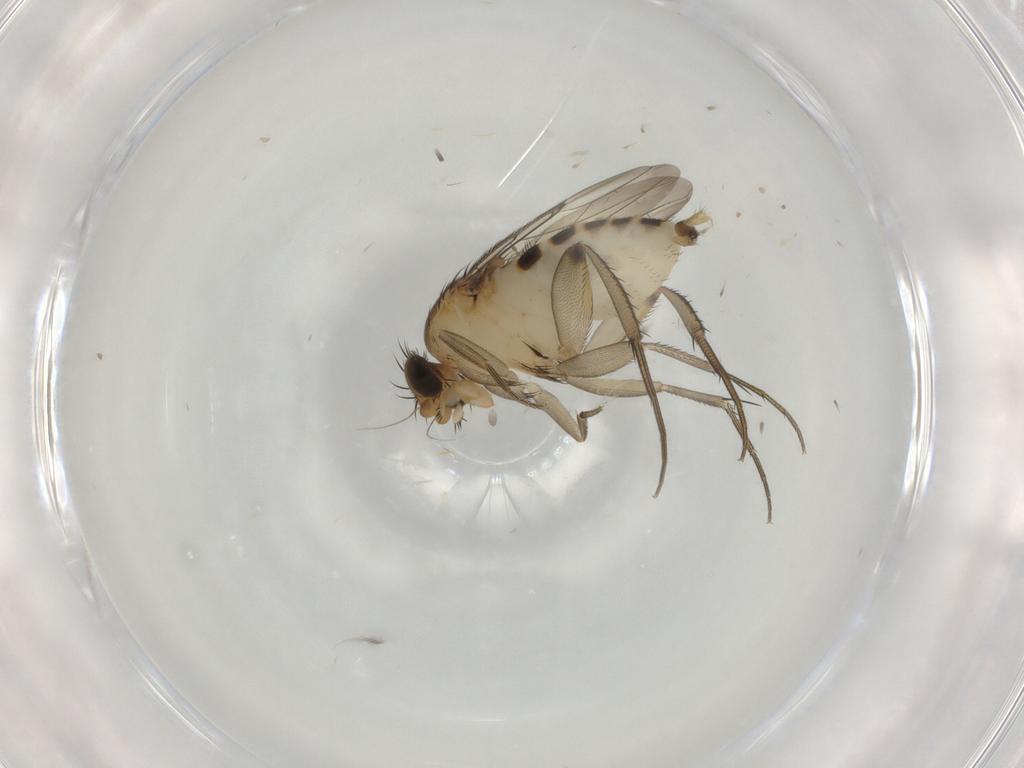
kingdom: Animalia
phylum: Arthropoda
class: Insecta
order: Diptera
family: Phoridae
